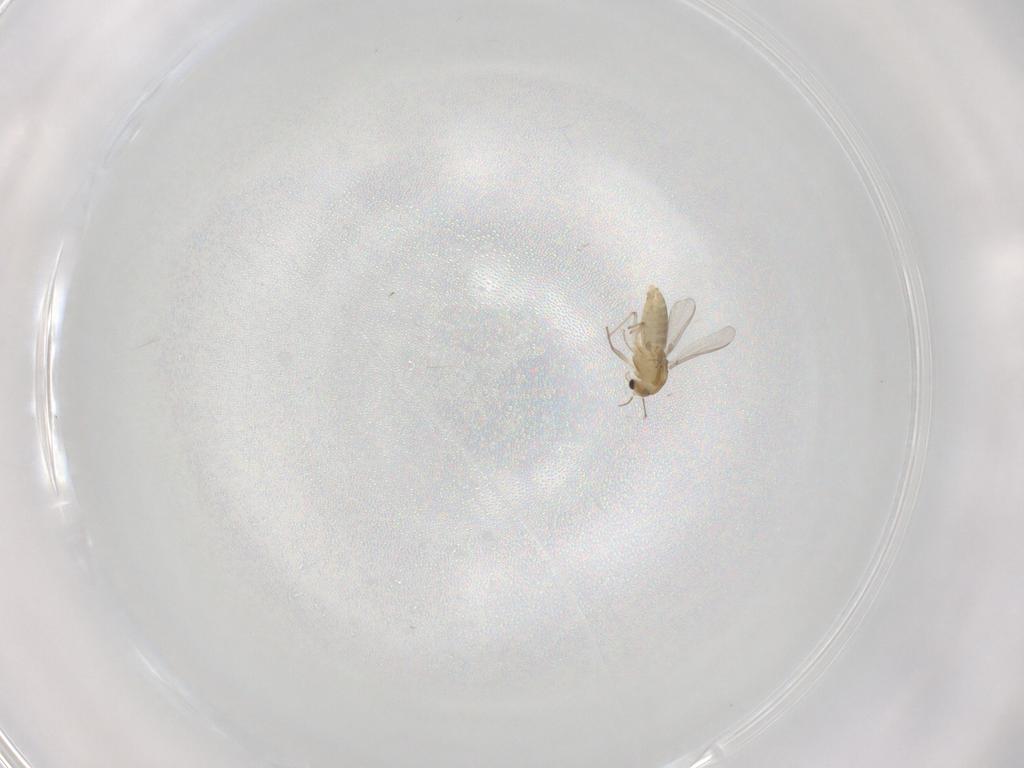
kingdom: Animalia
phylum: Arthropoda
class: Insecta
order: Diptera
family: Chironomidae
